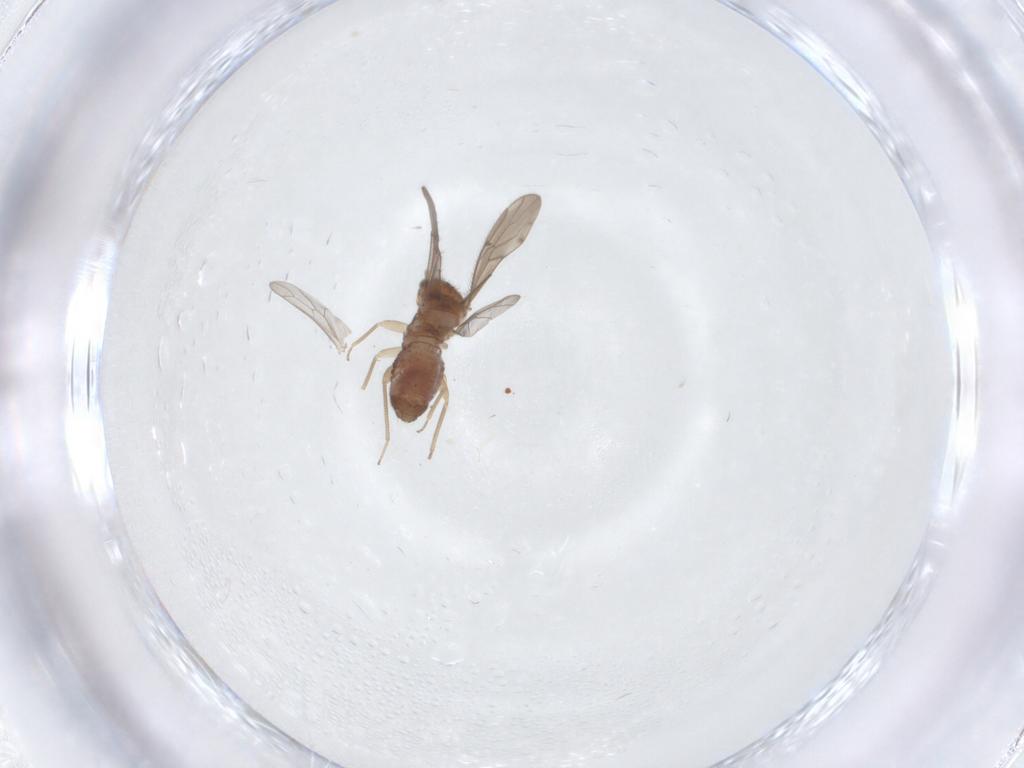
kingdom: Animalia
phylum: Arthropoda
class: Insecta
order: Psocodea
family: Ectopsocidae
